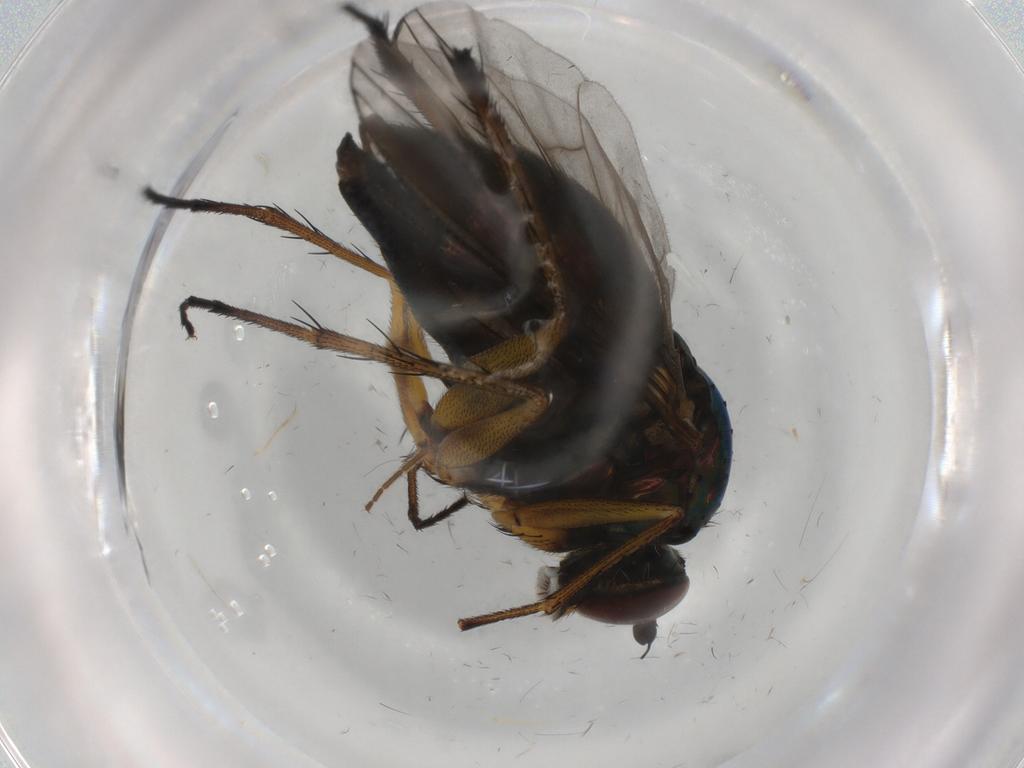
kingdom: Animalia
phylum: Arthropoda
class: Insecta
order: Diptera
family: Dolichopodidae
